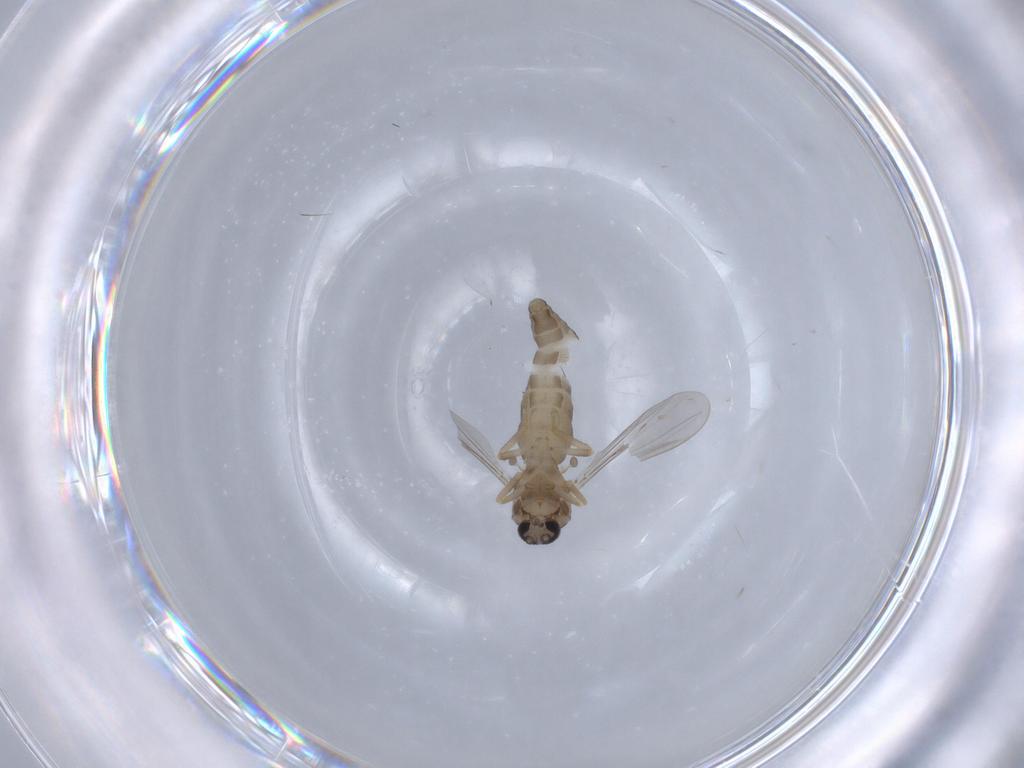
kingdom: Animalia
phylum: Arthropoda
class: Insecta
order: Diptera
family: Ceratopogonidae
